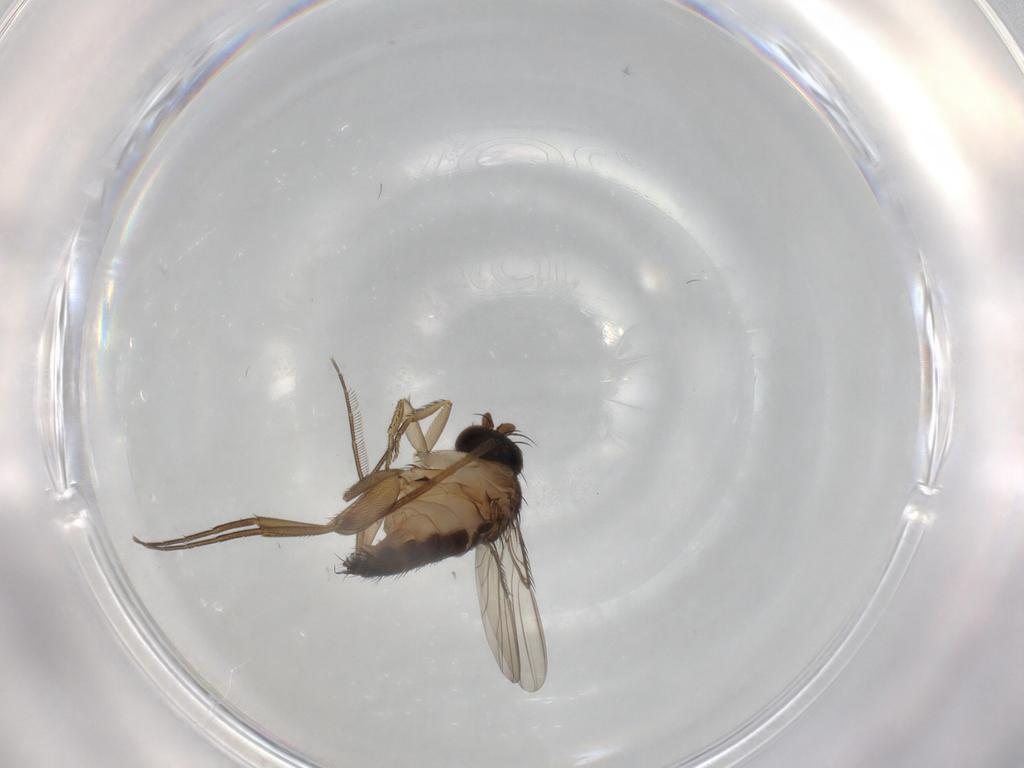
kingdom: Animalia
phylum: Arthropoda
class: Insecta
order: Diptera
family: Phoridae
